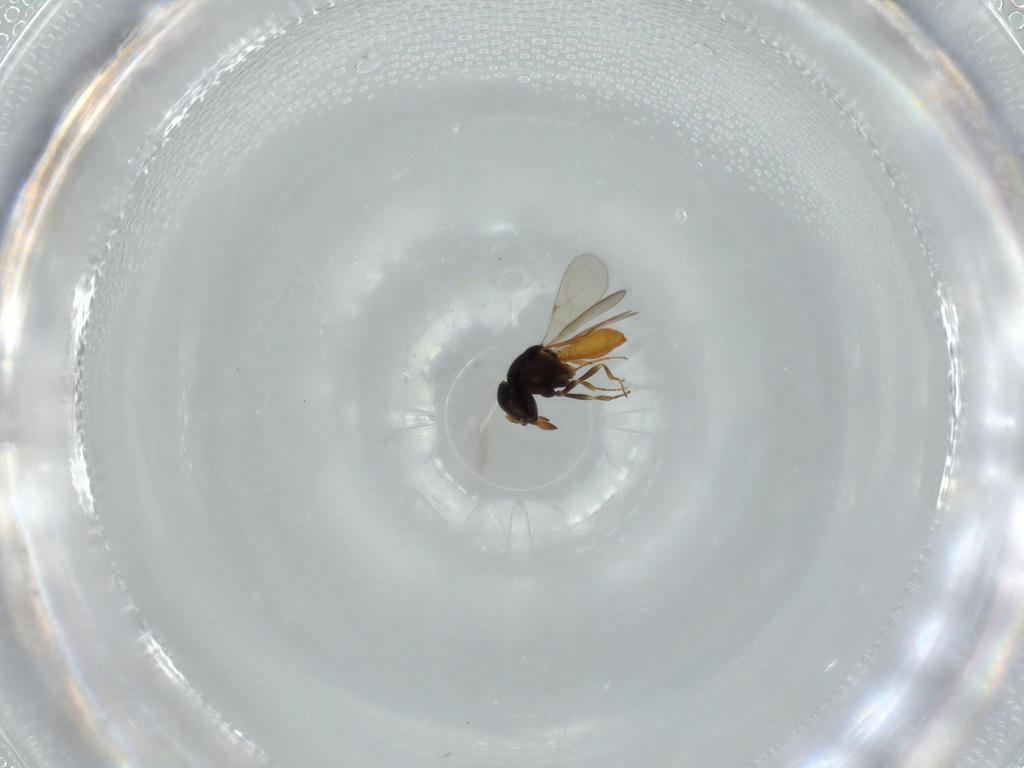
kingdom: Animalia
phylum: Arthropoda
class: Insecta
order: Hymenoptera
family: Scelionidae
